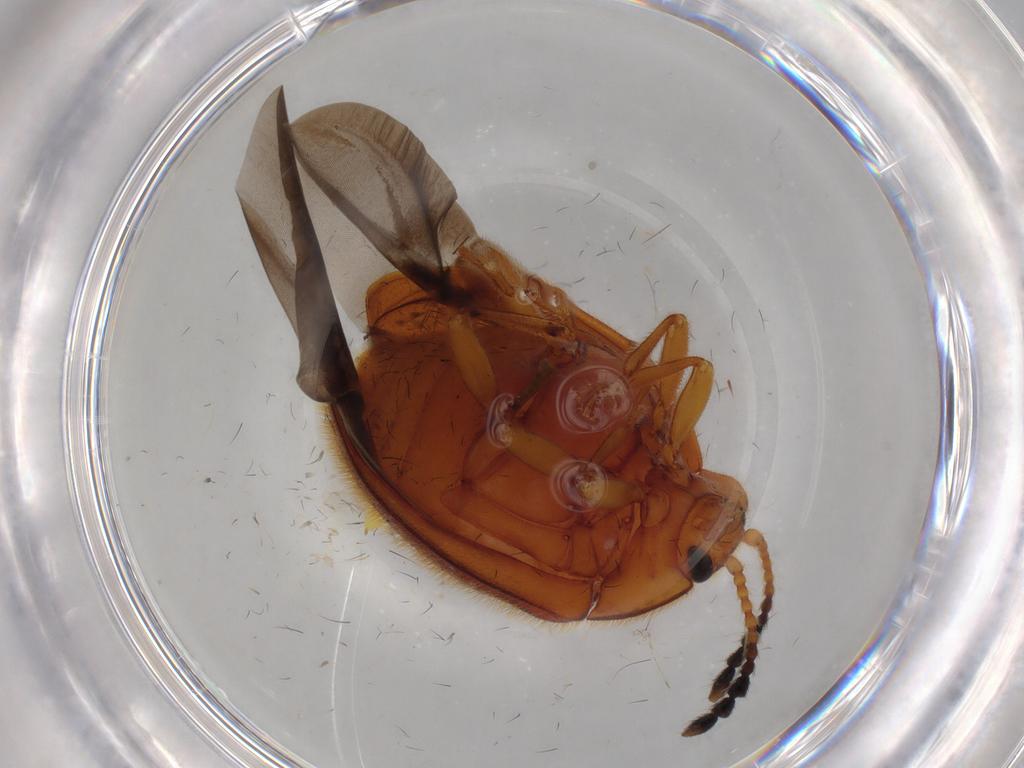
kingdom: Animalia
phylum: Arthropoda
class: Insecta
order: Coleoptera
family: Endomychidae
